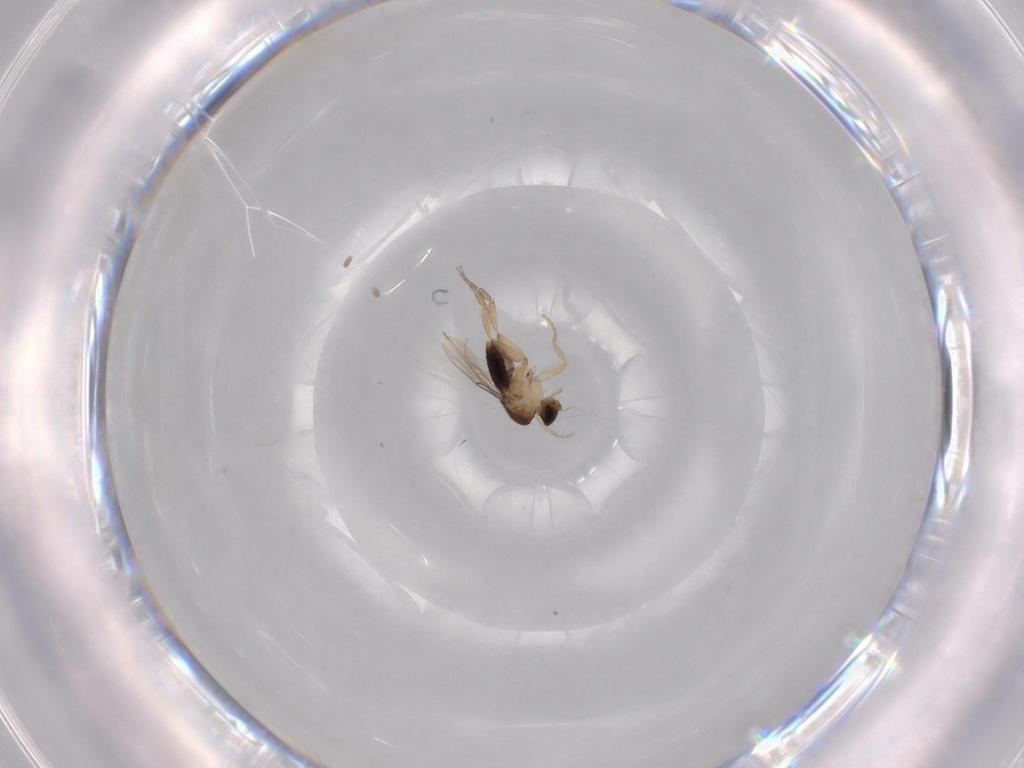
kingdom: Animalia
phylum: Arthropoda
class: Insecta
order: Diptera
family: Phoridae
